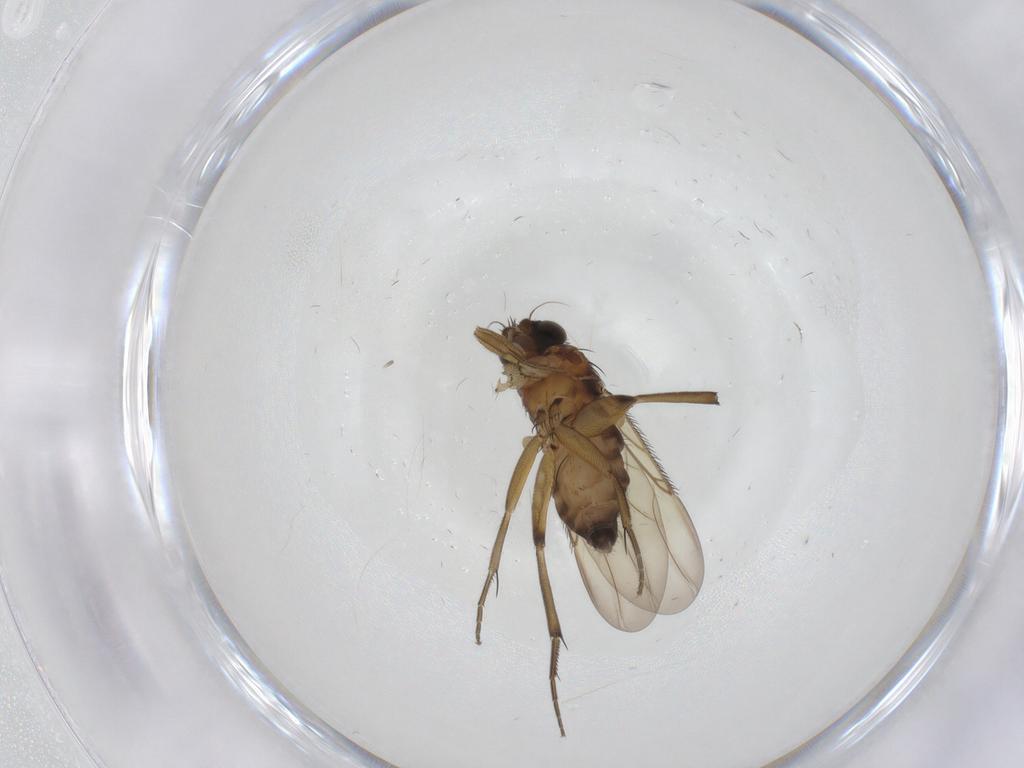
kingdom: Animalia
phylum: Arthropoda
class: Insecta
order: Diptera
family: Phoridae
